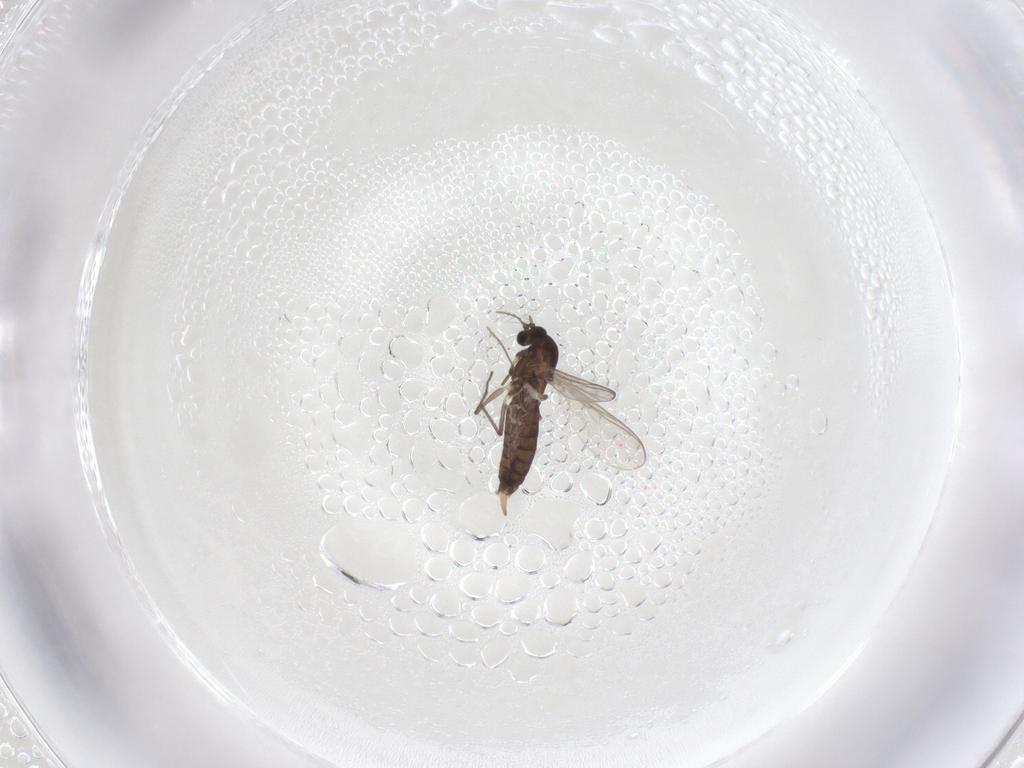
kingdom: Animalia
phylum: Arthropoda
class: Insecta
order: Diptera
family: Chironomidae
